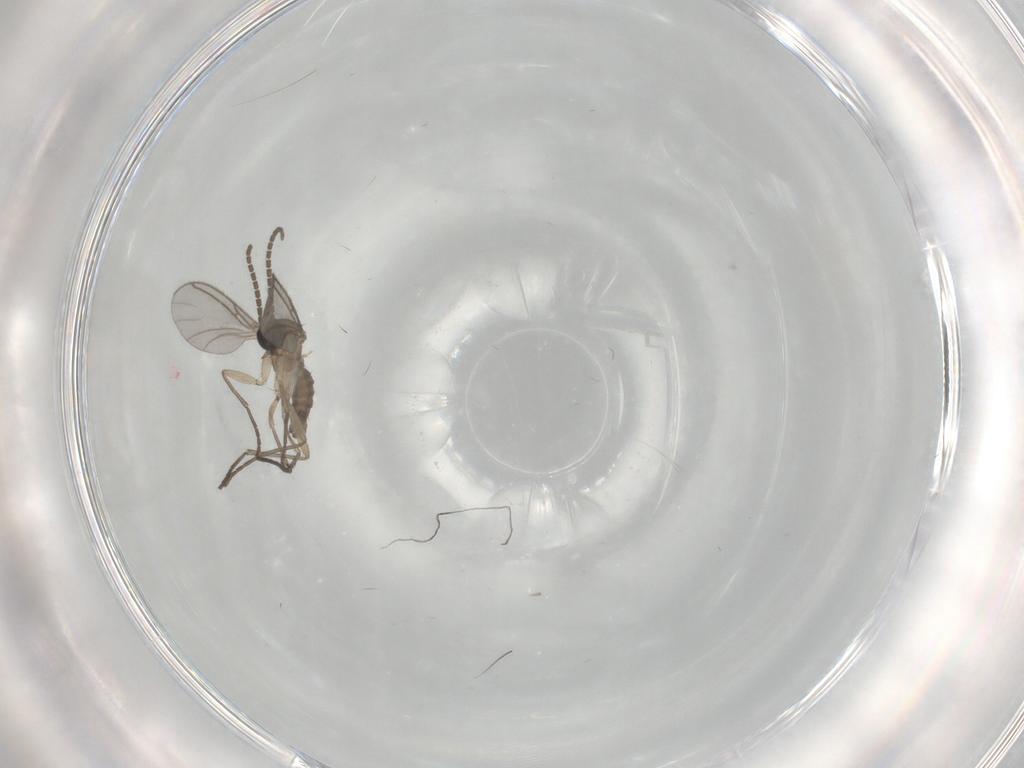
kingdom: Animalia
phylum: Arthropoda
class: Insecta
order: Diptera
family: Sciaridae
